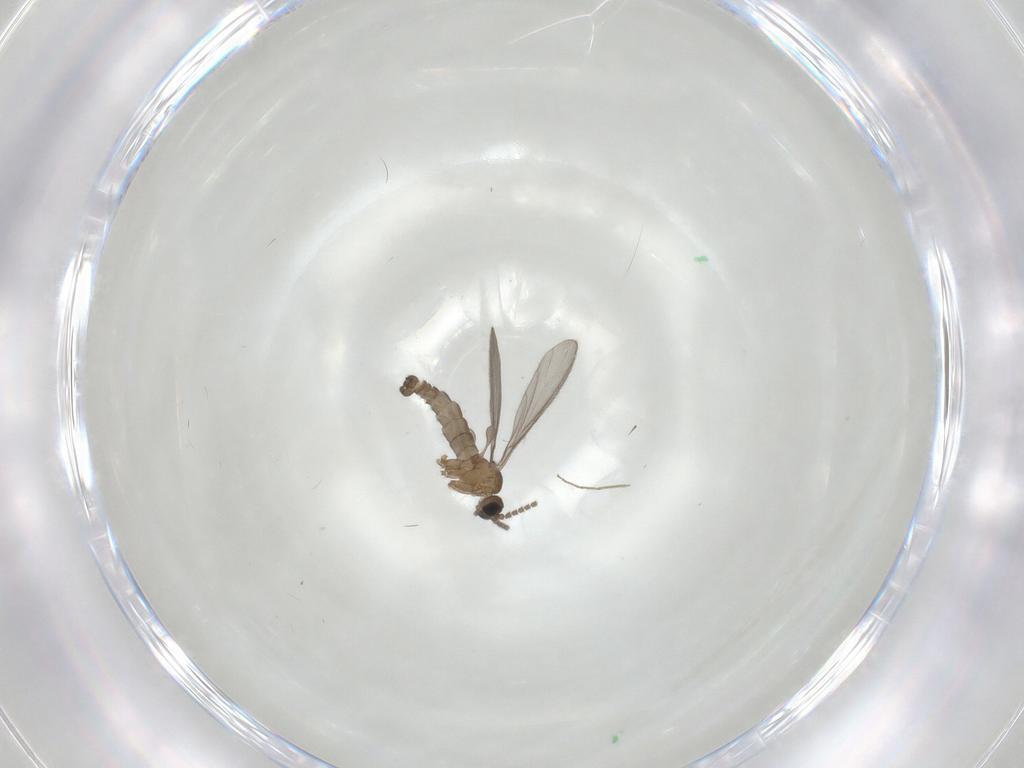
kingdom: Animalia
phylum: Arthropoda
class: Insecta
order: Diptera
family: Sciaridae
